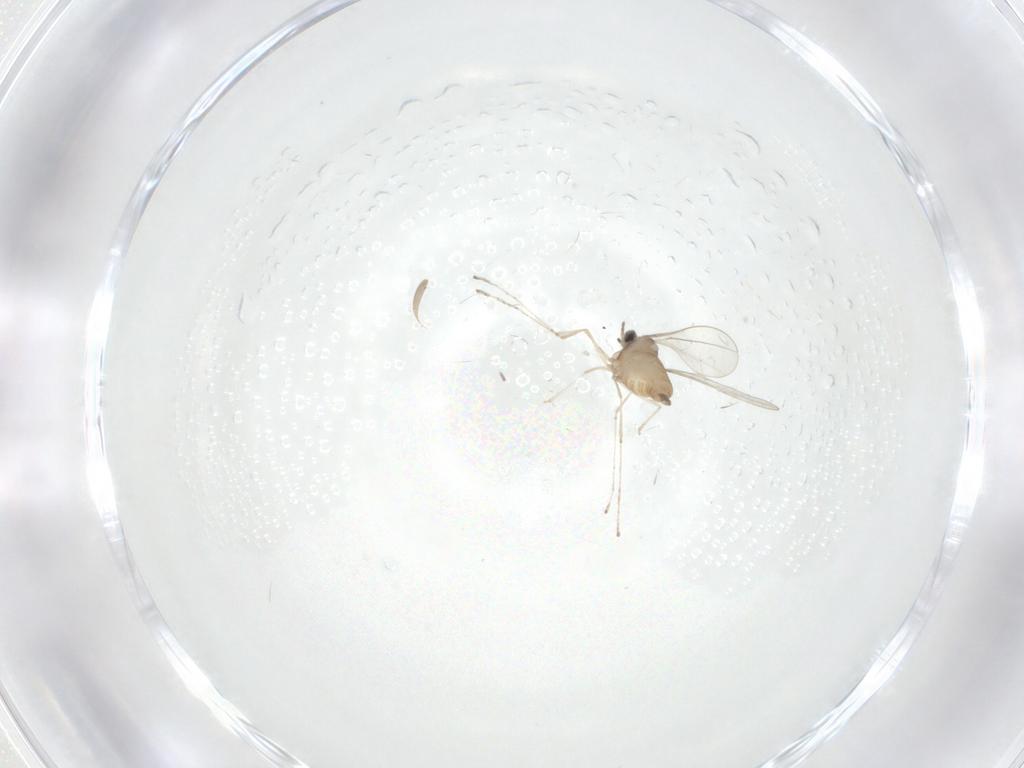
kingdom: Animalia
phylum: Arthropoda
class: Insecta
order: Diptera
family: Cecidomyiidae
